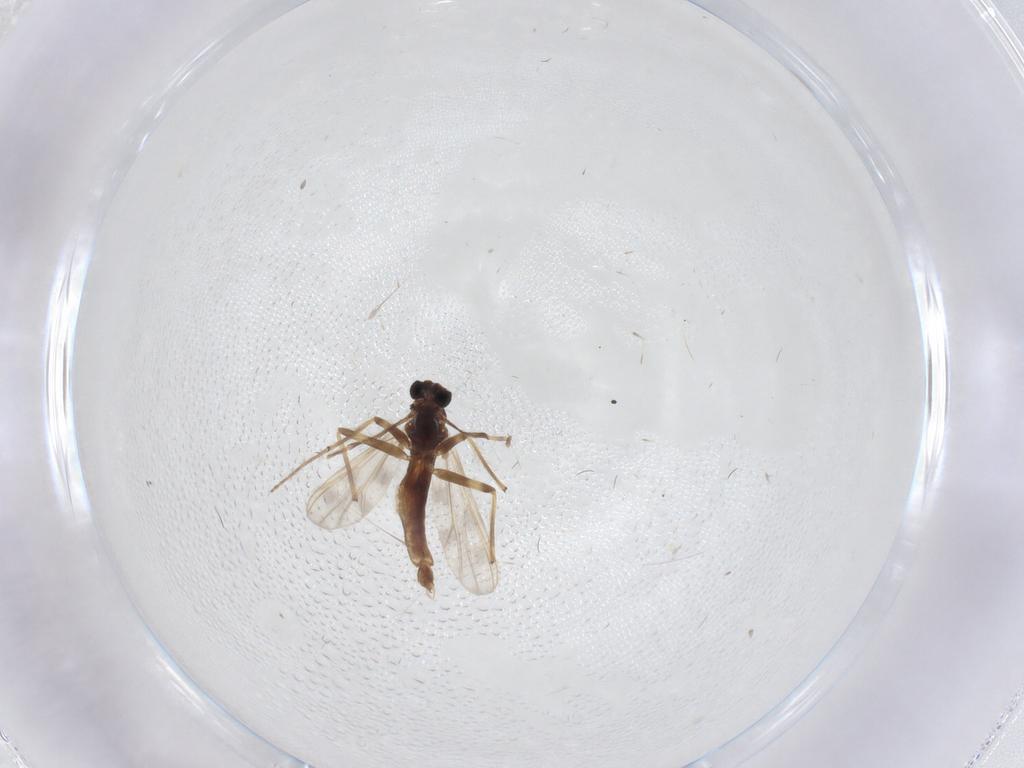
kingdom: Animalia
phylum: Arthropoda
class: Insecta
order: Diptera
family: Chironomidae
